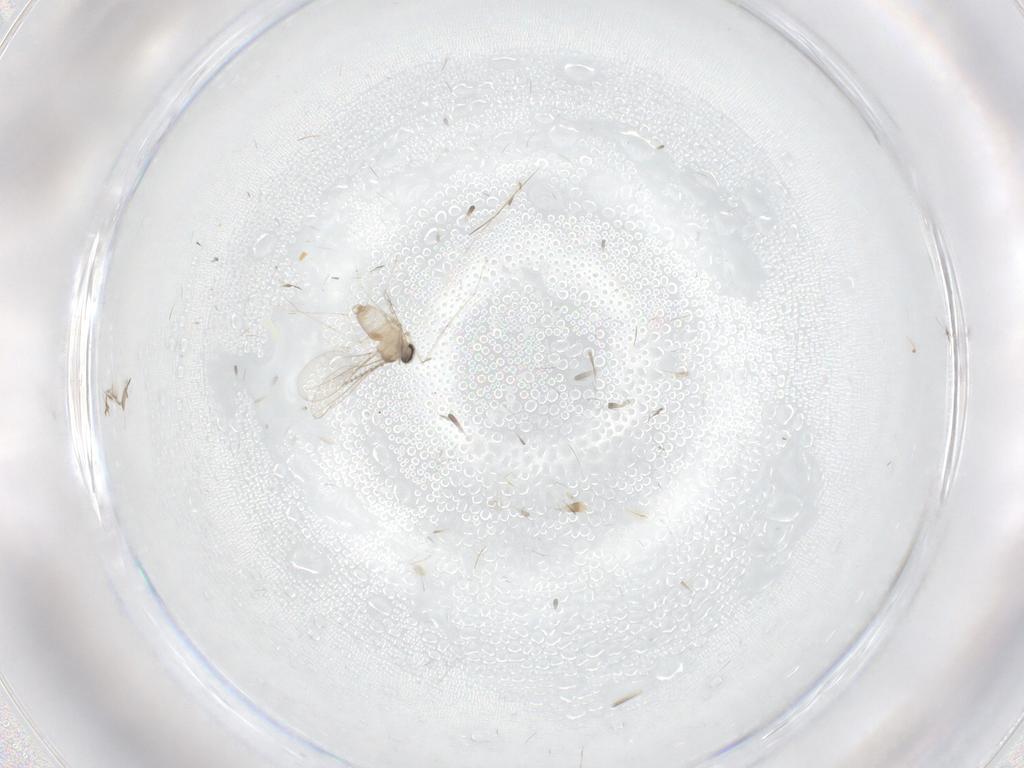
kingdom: Animalia
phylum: Arthropoda
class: Insecta
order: Diptera
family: Cecidomyiidae
